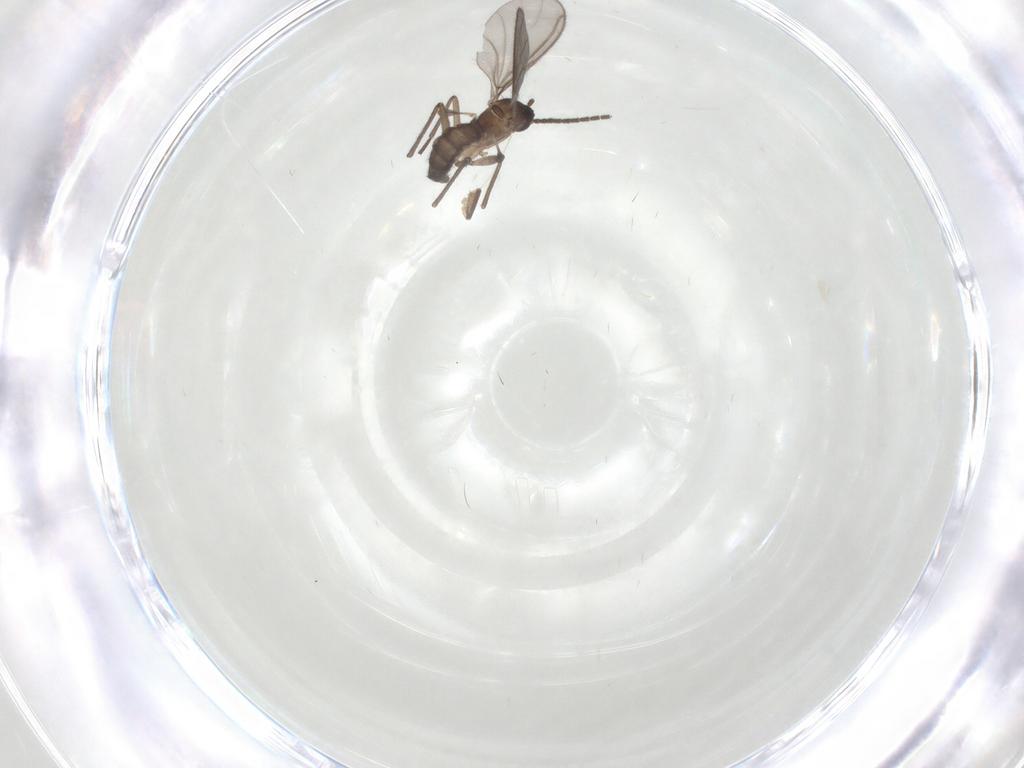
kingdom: Animalia
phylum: Arthropoda
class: Insecta
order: Diptera
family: Sciaridae
